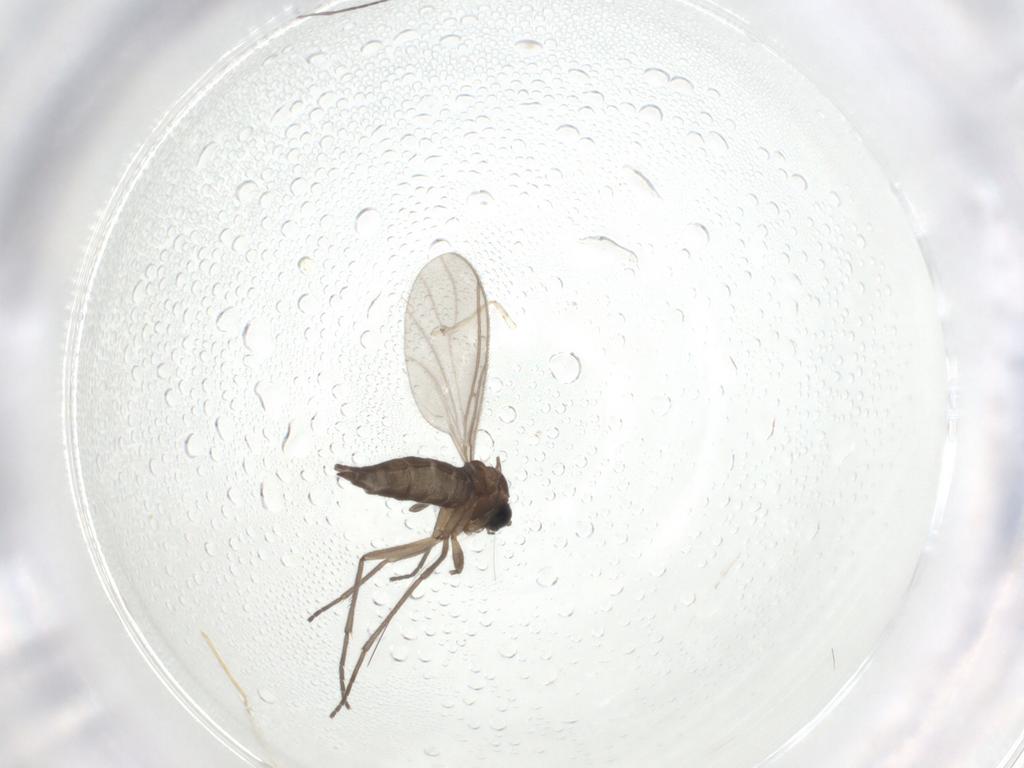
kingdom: Animalia
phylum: Arthropoda
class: Insecta
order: Diptera
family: Sciaridae
